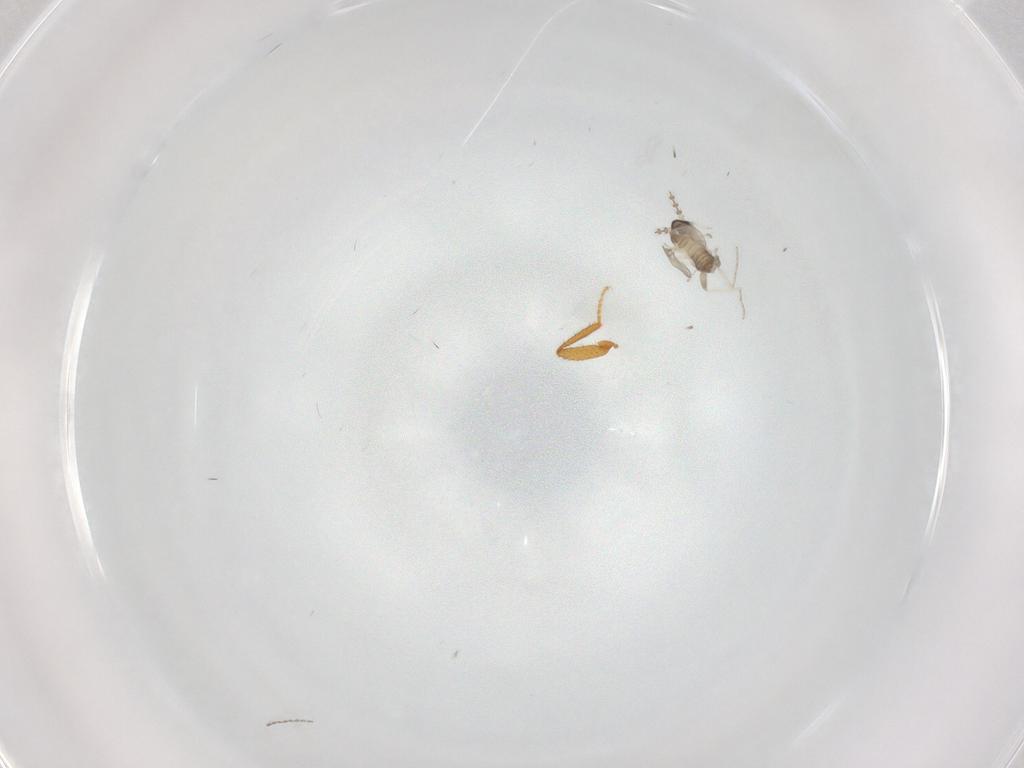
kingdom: Animalia
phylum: Arthropoda
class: Insecta
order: Diptera
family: Cecidomyiidae
